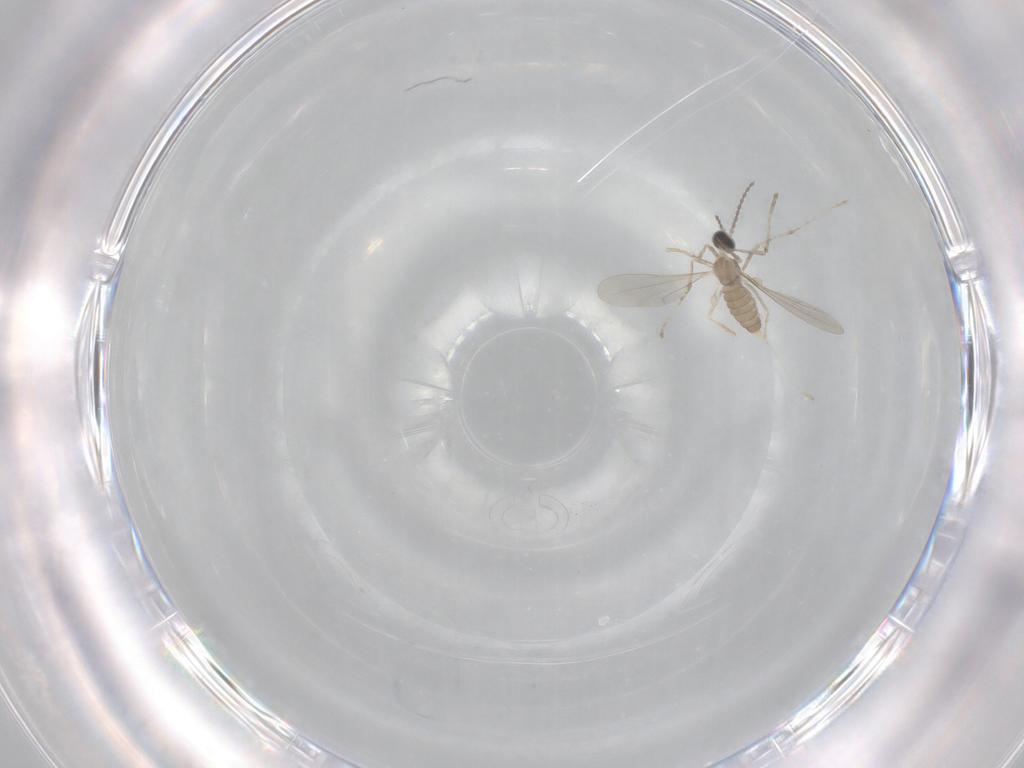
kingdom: Animalia
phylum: Arthropoda
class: Insecta
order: Diptera
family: Cecidomyiidae
